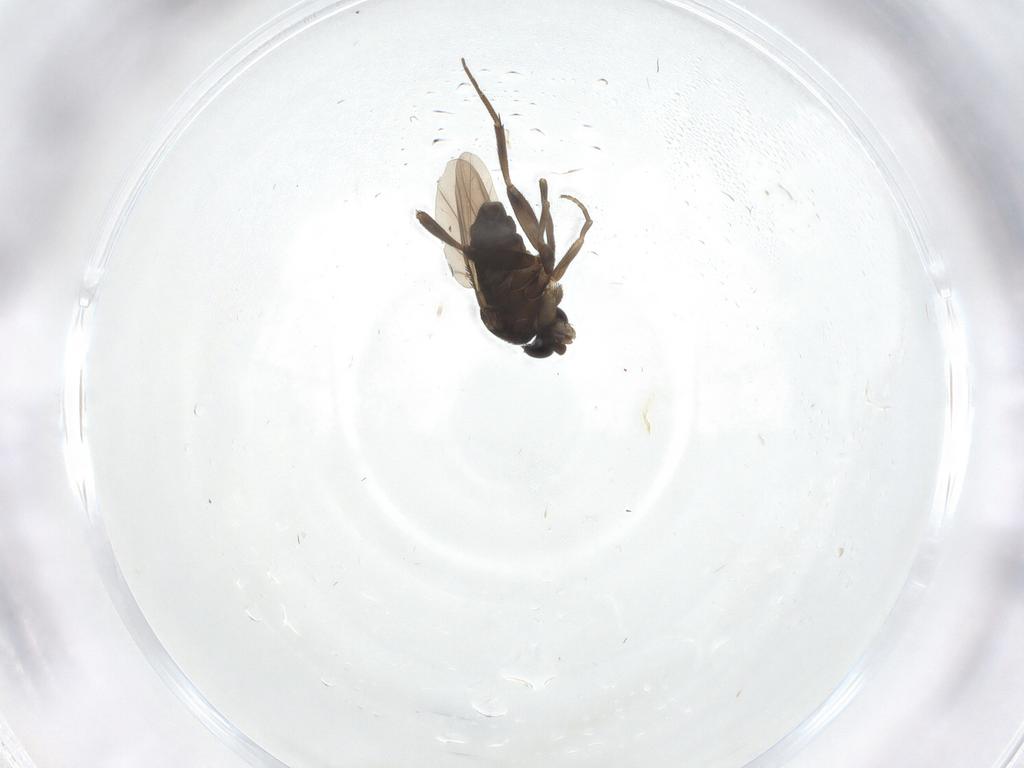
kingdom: Animalia
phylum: Arthropoda
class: Insecta
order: Diptera
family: Phoridae
